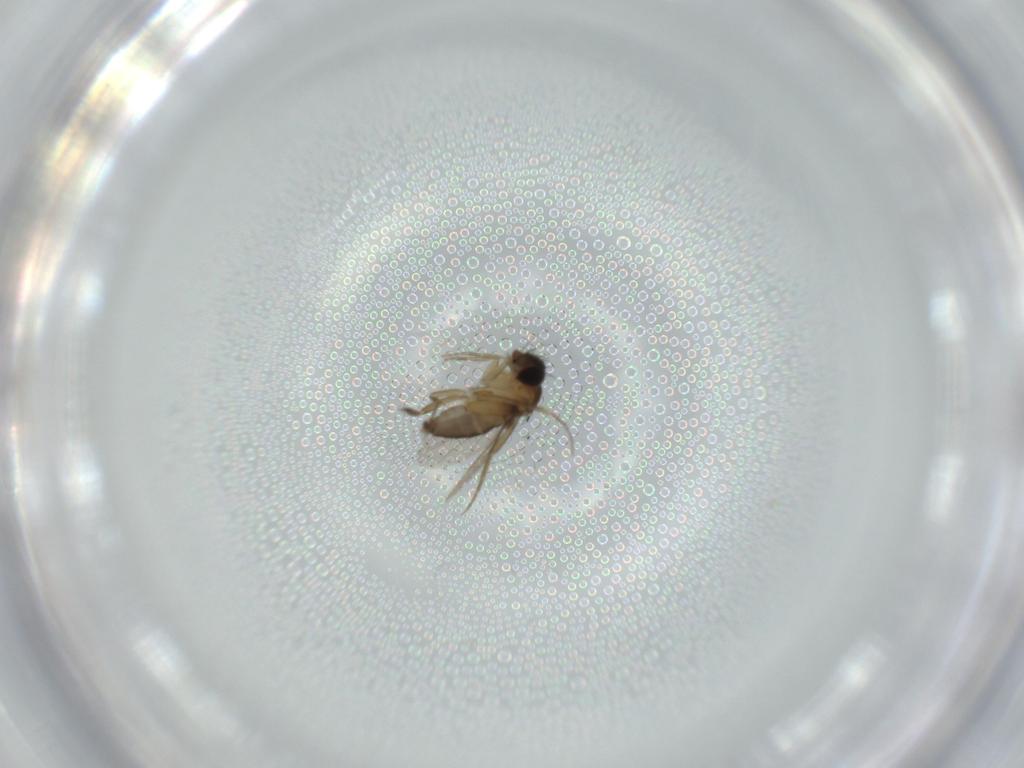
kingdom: Animalia
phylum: Arthropoda
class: Insecta
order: Diptera
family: Phoridae
